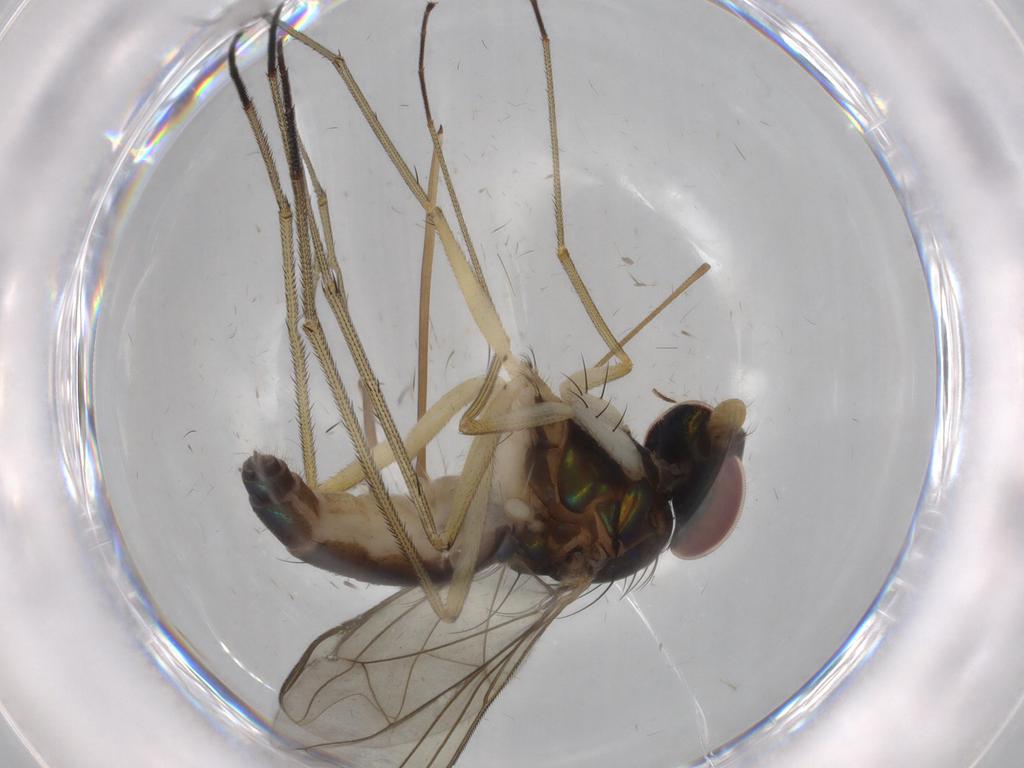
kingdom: Animalia
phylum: Arthropoda
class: Insecta
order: Diptera
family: Dolichopodidae
